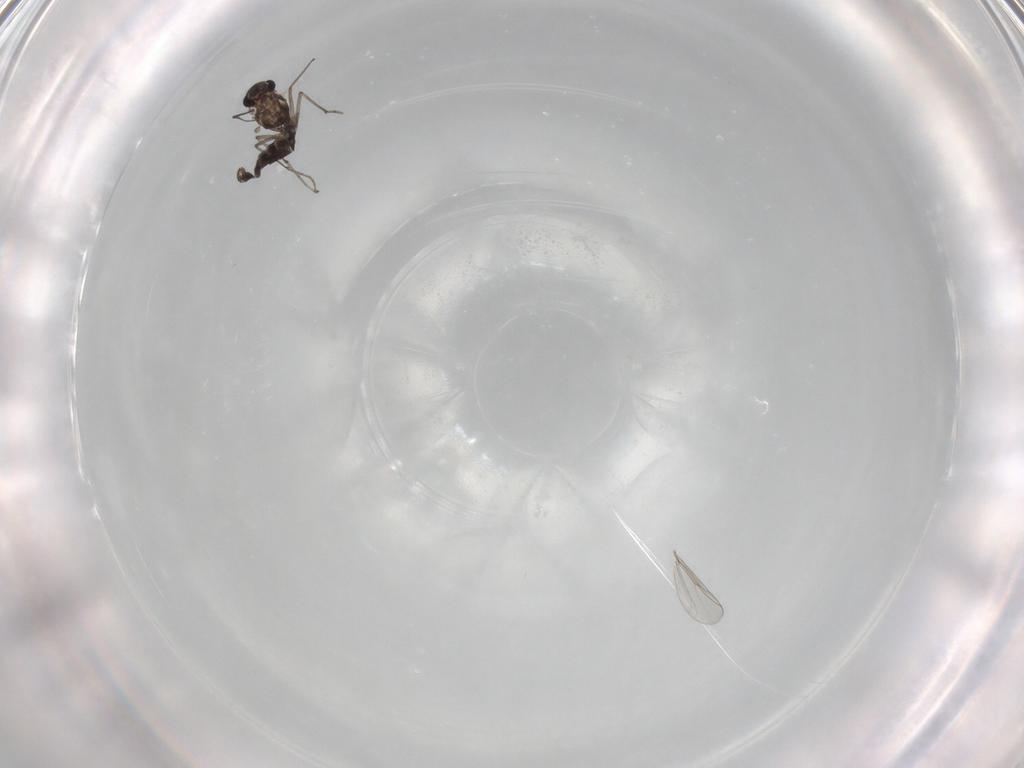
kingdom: Animalia
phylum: Arthropoda
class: Insecta
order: Diptera
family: Chironomidae
